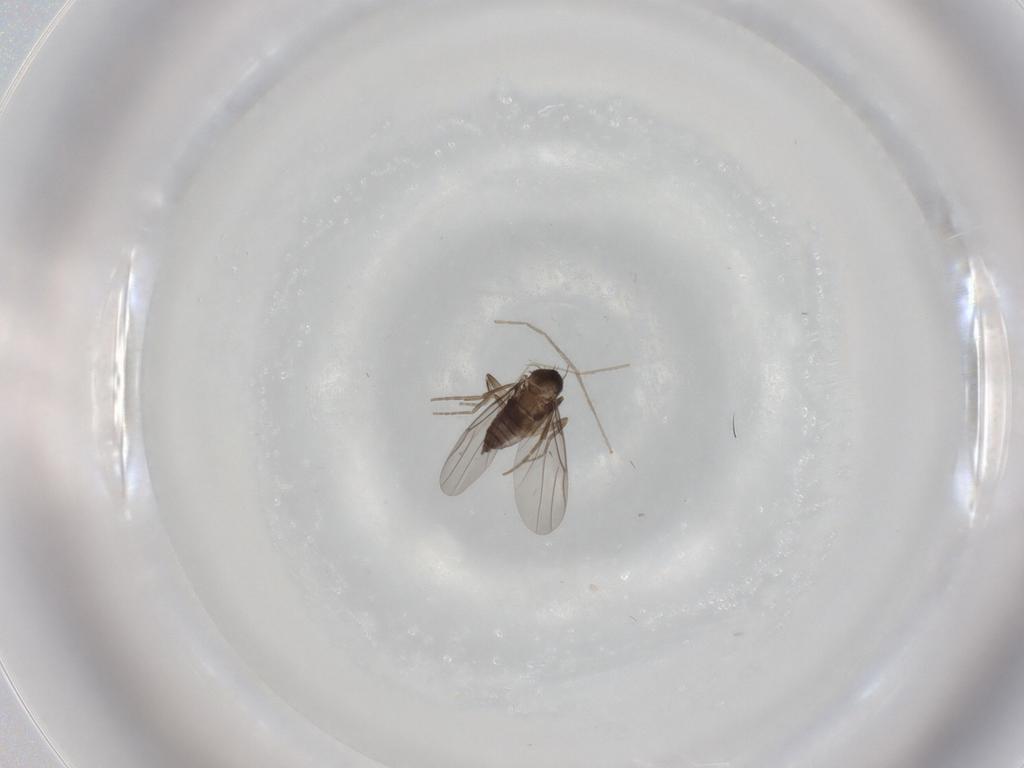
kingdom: Animalia
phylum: Arthropoda
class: Insecta
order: Diptera
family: Chironomidae
